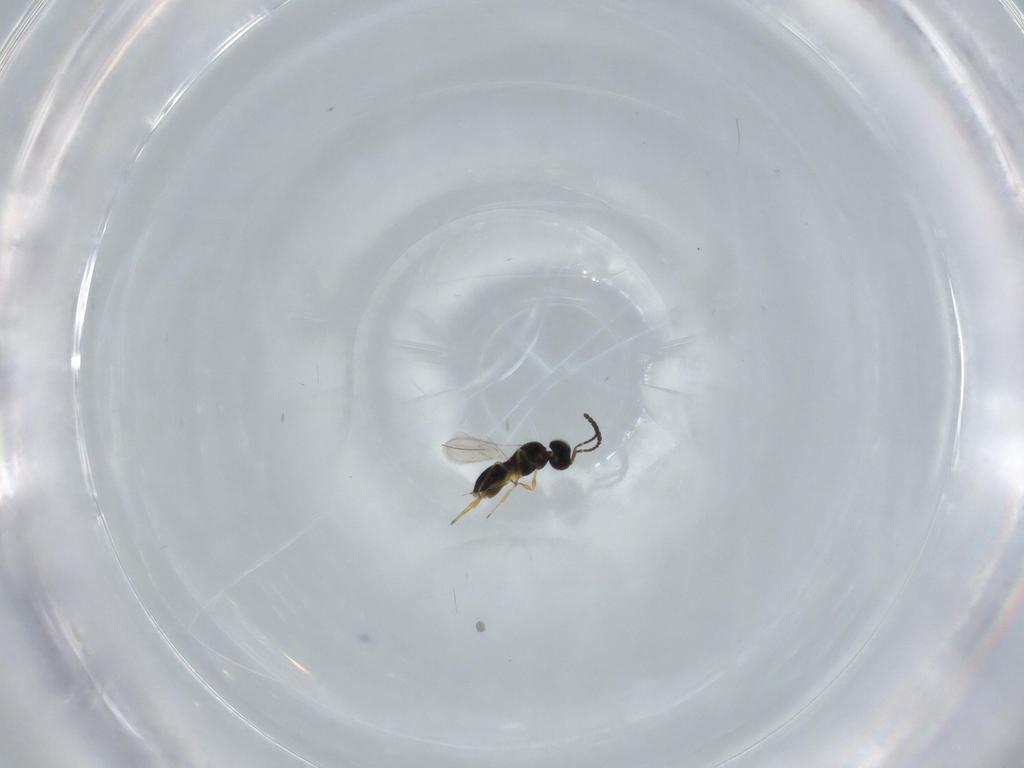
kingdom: Animalia
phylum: Arthropoda
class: Insecta
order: Hymenoptera
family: Scelionidae
